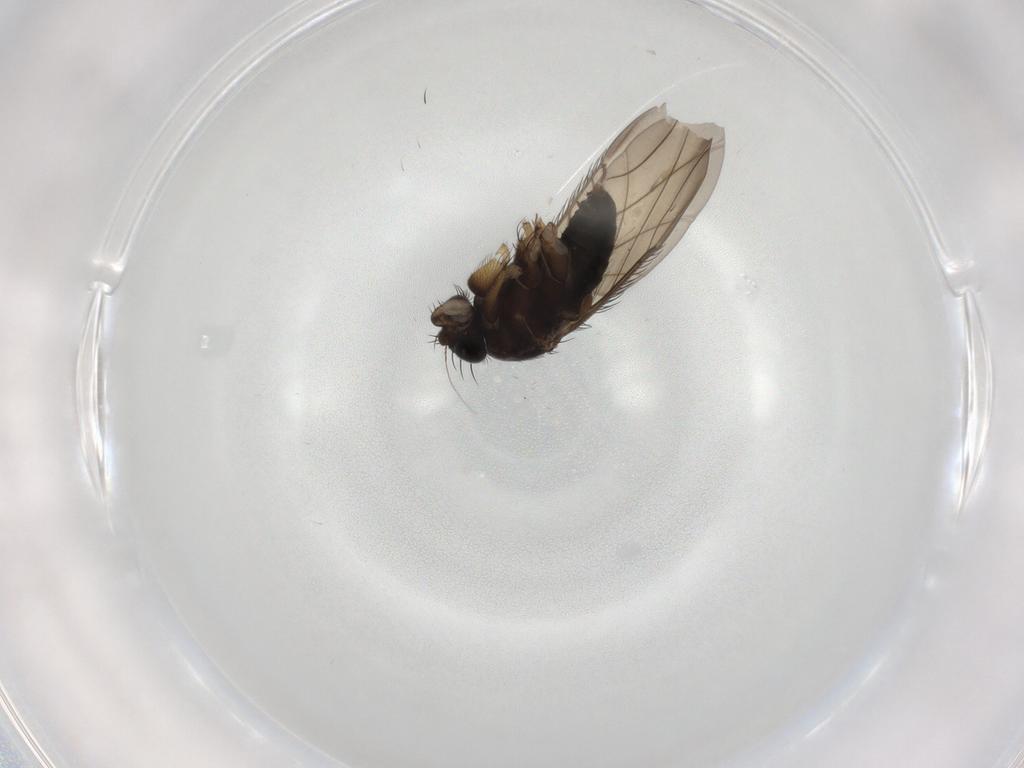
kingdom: Animalia
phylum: Arthropoda
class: Insecta
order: Diptera
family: Phoridae
